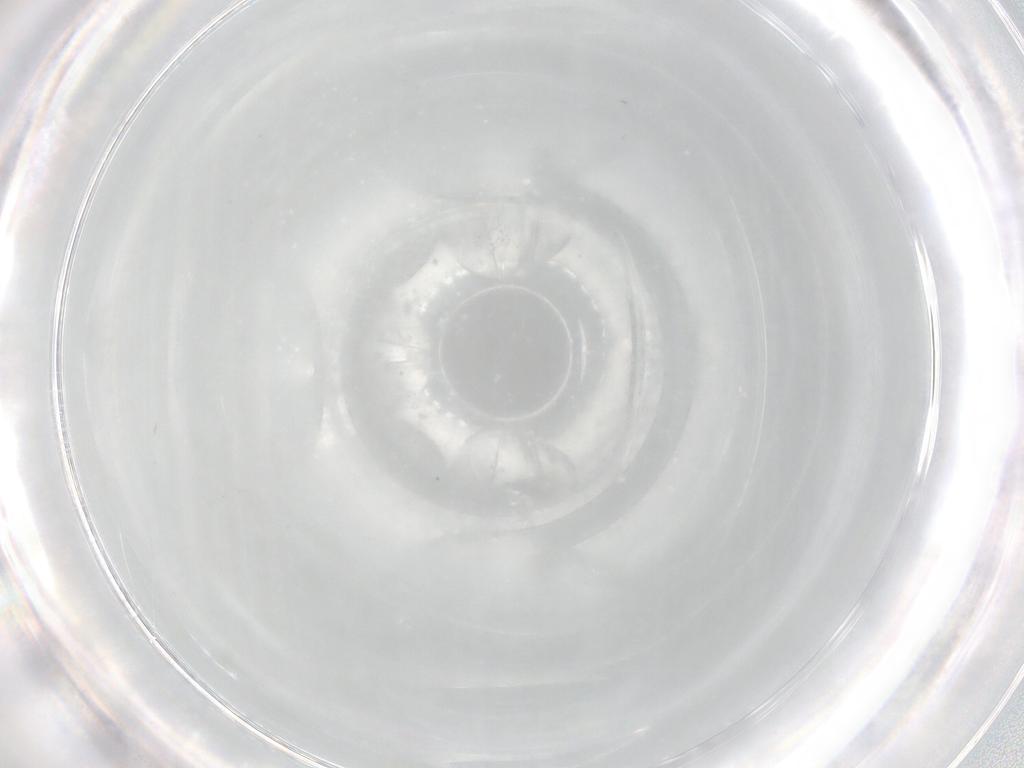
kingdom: Animalia
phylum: Arthropoda
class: Insecta
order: Diptera
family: Cecidomyiidae
